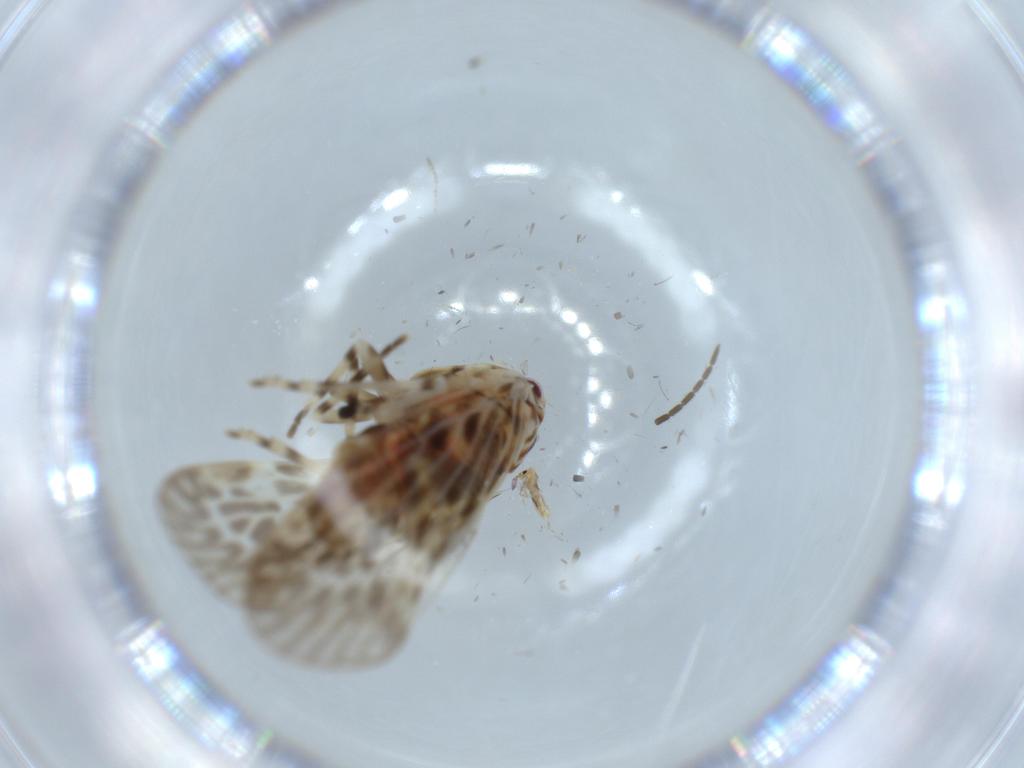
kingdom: Animalia
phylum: Arthropoda
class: Insecta
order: Hemiptera
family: Derbidae
